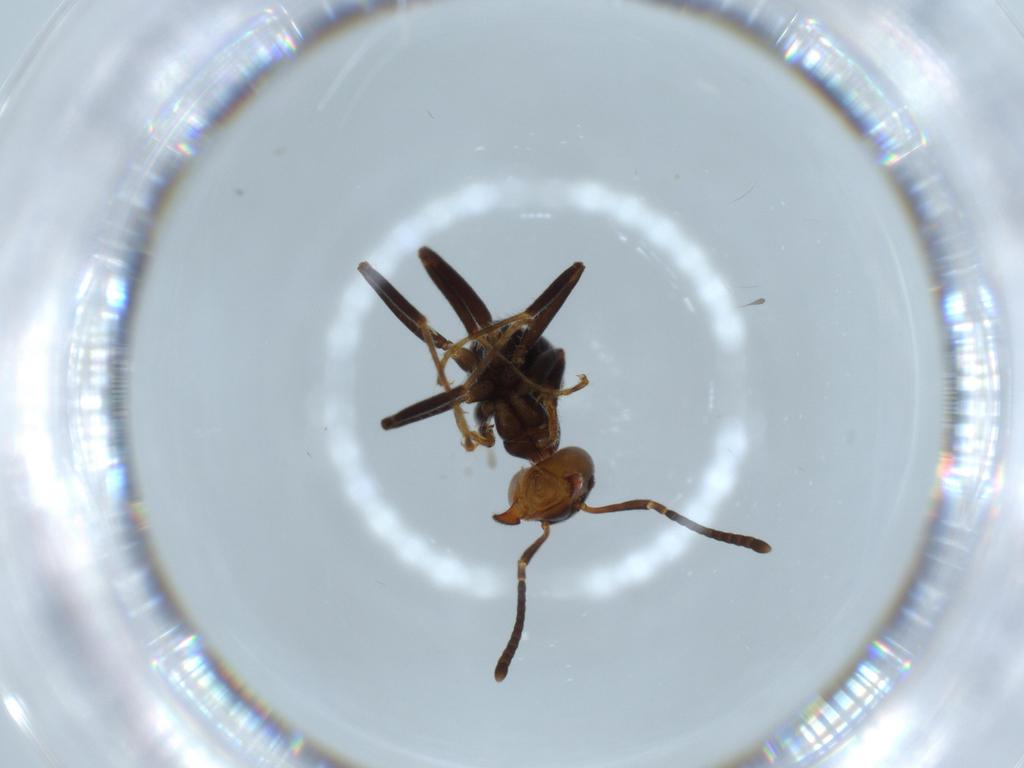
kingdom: Animalia
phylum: Arthropoda
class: Insecta
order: Hymenoptera
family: Formicidae
